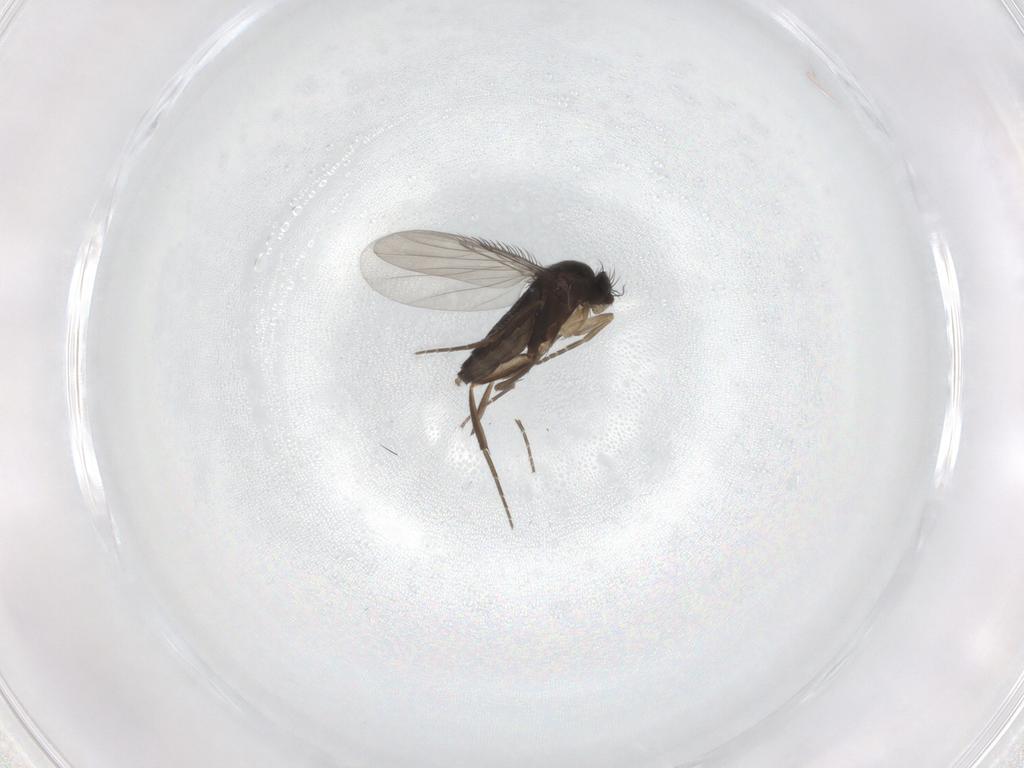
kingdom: Animalia
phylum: Arthropoda
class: Insecta
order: Diptera
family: Phoridae
